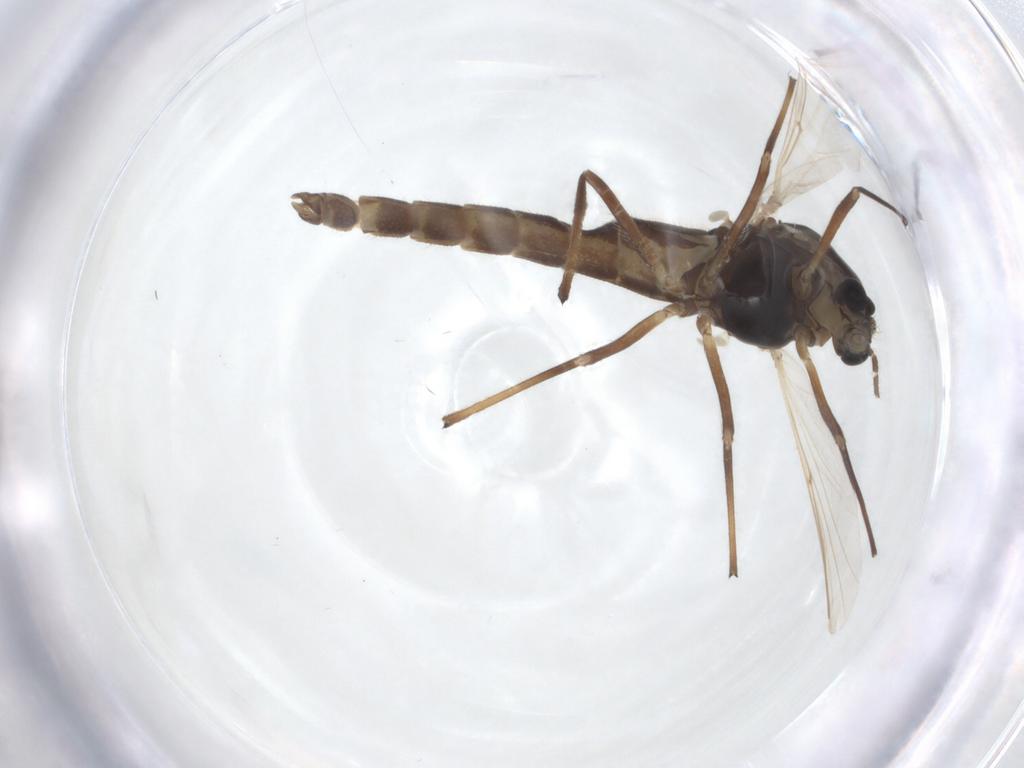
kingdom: Animalia
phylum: Arthropoda
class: Insecta
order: Diptera
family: Chironomidae
